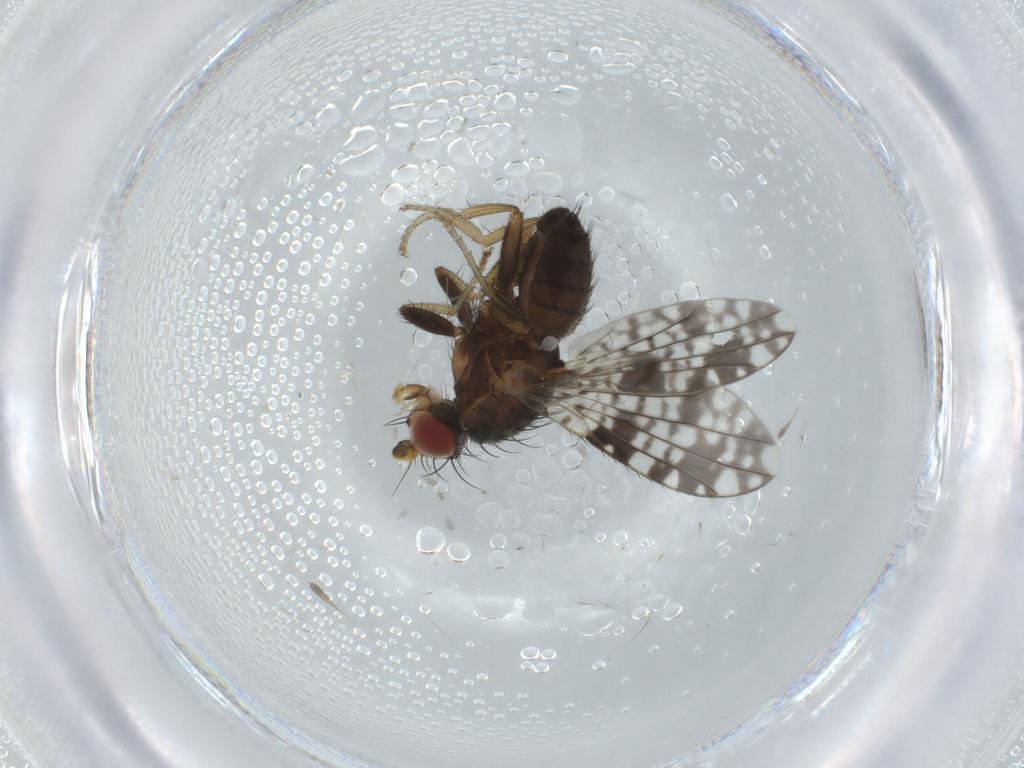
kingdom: Animalia
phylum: Arthropoda
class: Insecta
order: Diptera
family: Tephritidae
